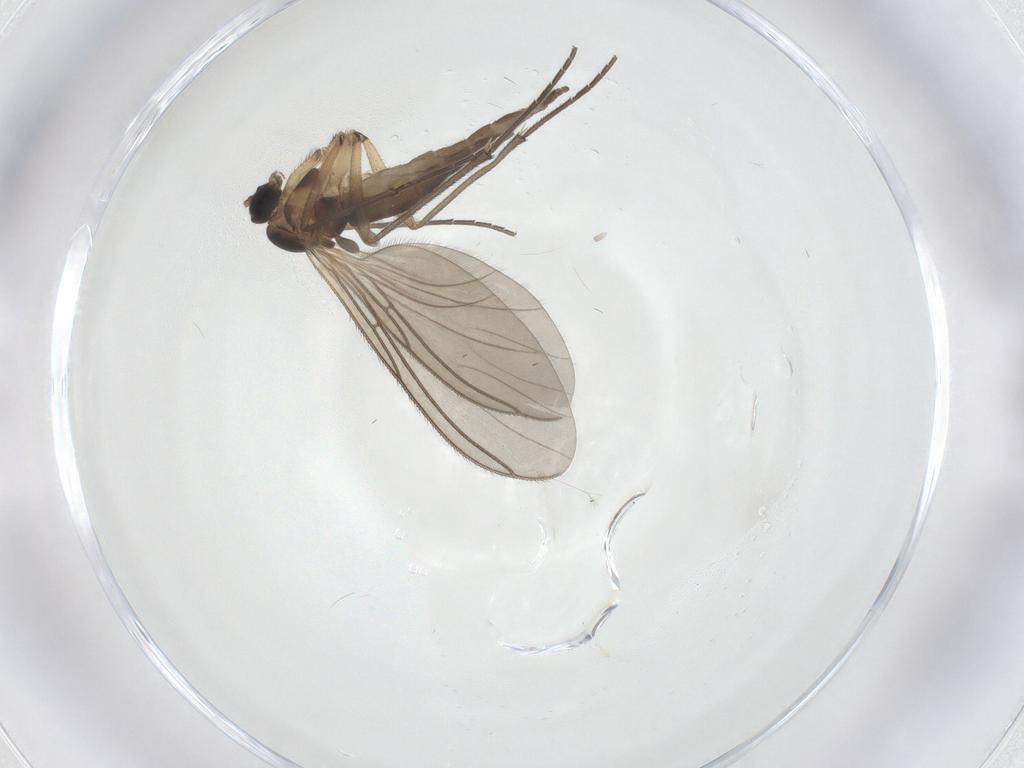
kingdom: Animalia
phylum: Arthropoda
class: Insecta
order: Diptera
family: Sciaridae
